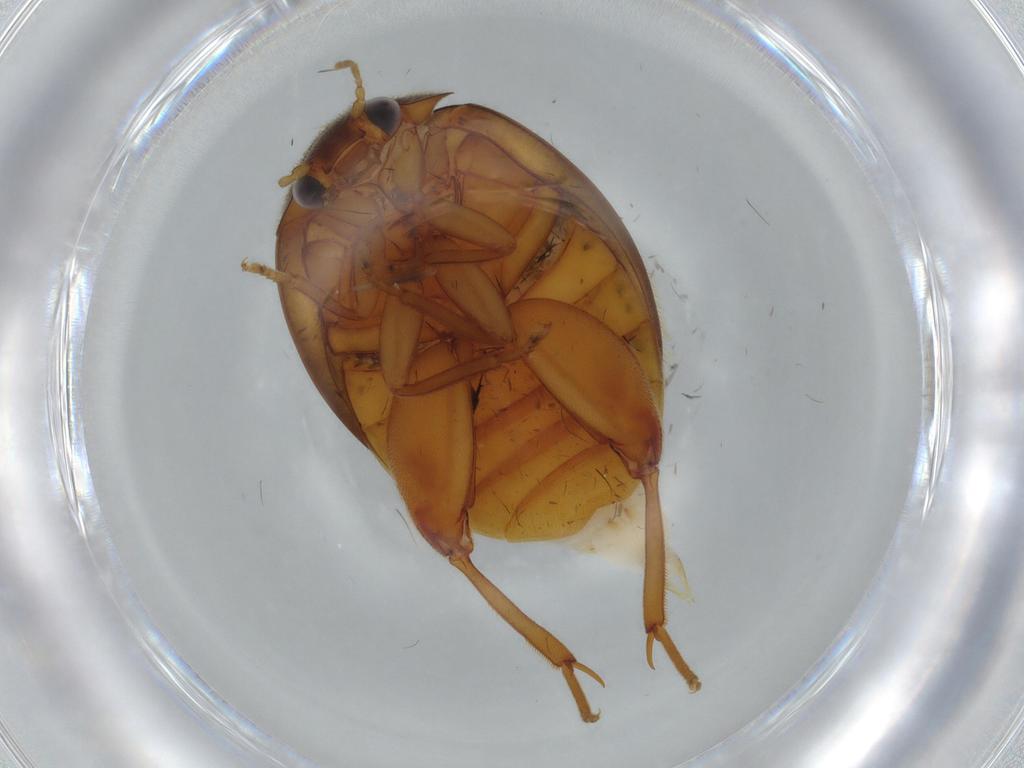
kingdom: Animalia
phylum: Arthropoda
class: Insecta
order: Coleoptera
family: Scirtidae
